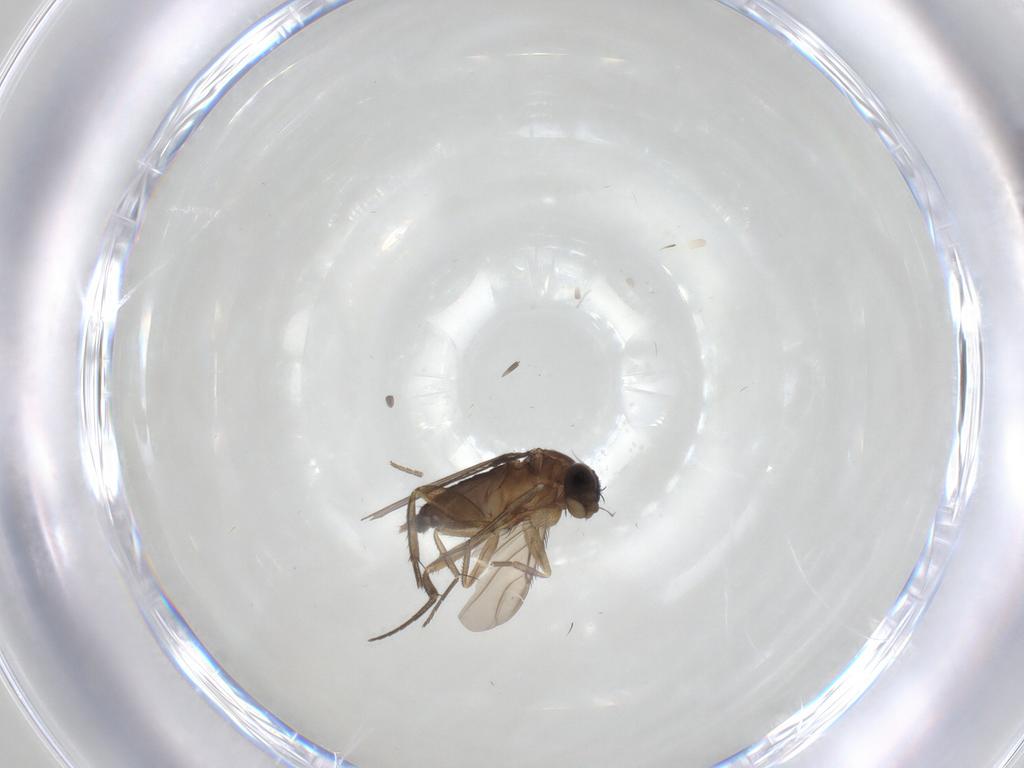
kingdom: Animalia
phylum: Arthropoda
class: Insecta
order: Diptera
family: Phoridae
